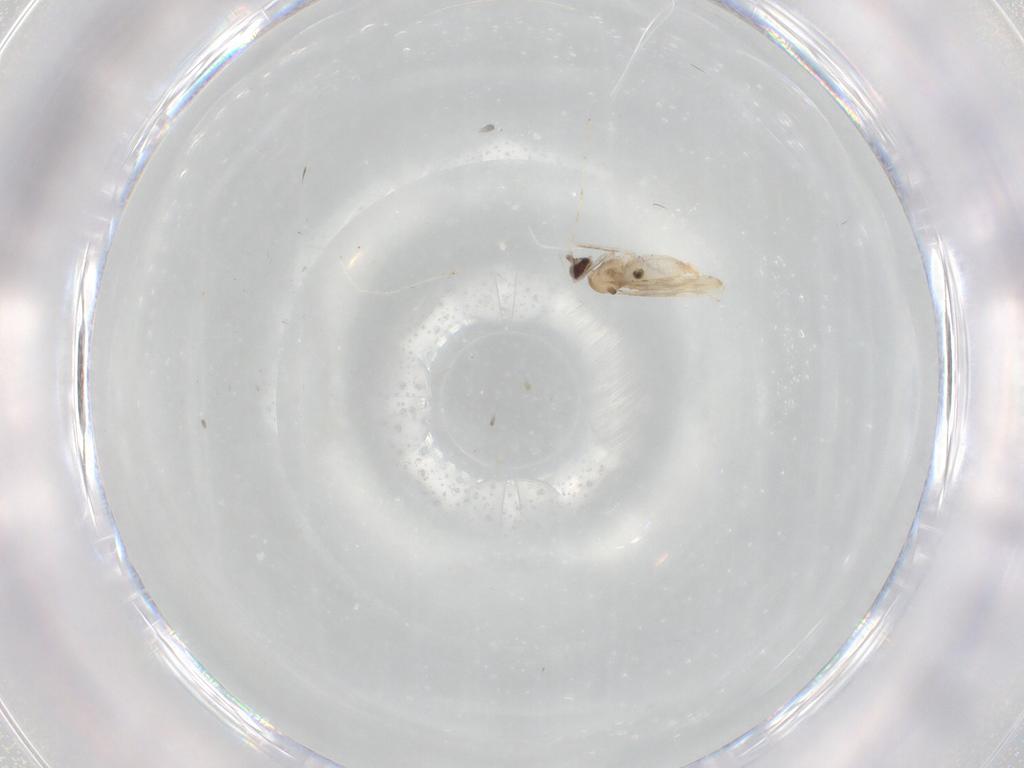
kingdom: Animalia
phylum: Arthropoda
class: Insecta
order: Diptera
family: Cecidomyiidae
